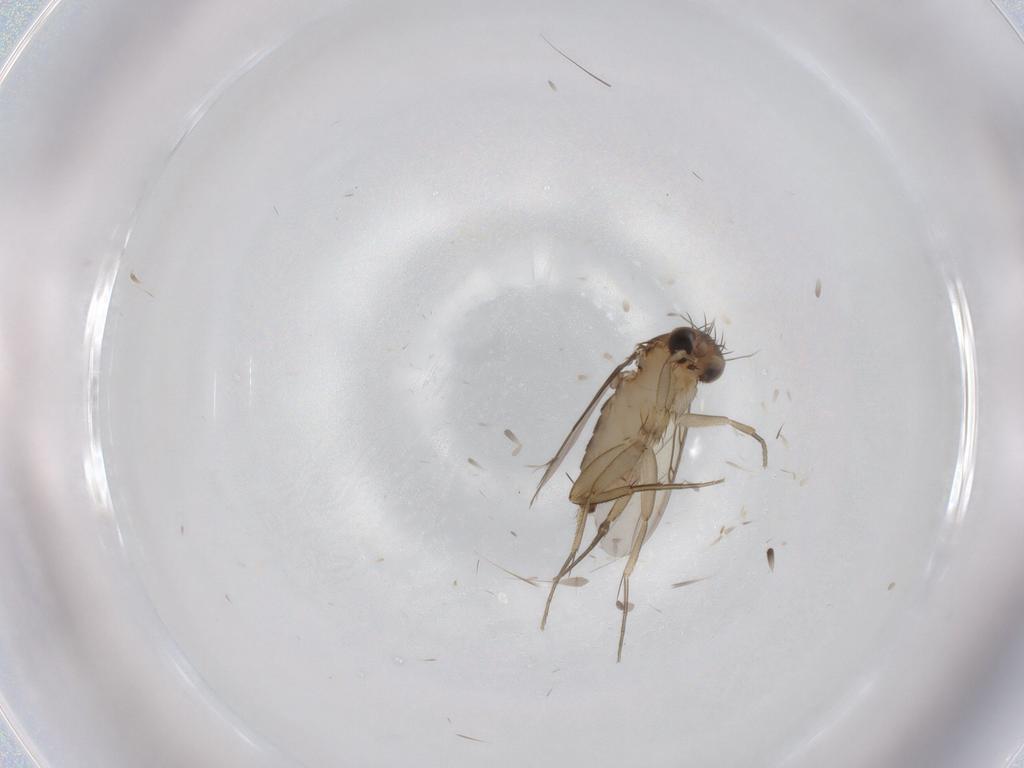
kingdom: Animalia
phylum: Arthropoda
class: Insecta
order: Diptera
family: Phoridae
